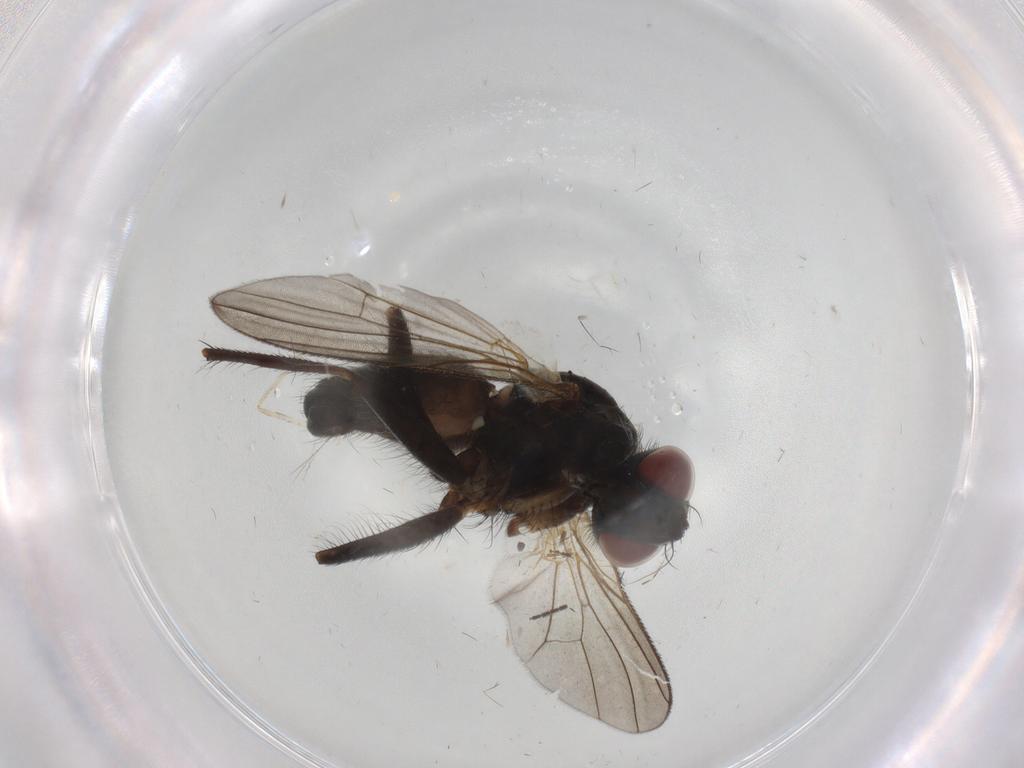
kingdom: Animalia
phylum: Arthropoda
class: Insecta
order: Diptera
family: Muscidae
